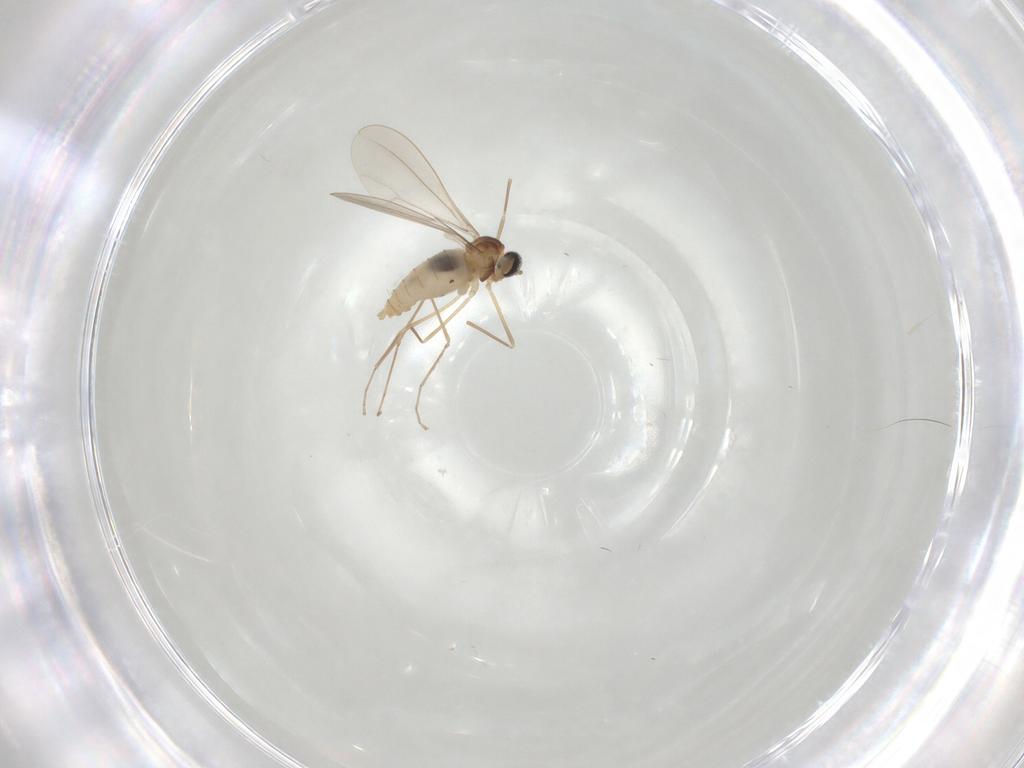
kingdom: Animalia
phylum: Arthropoda
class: Insecta
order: Diptera
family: Cecidomyiidae
